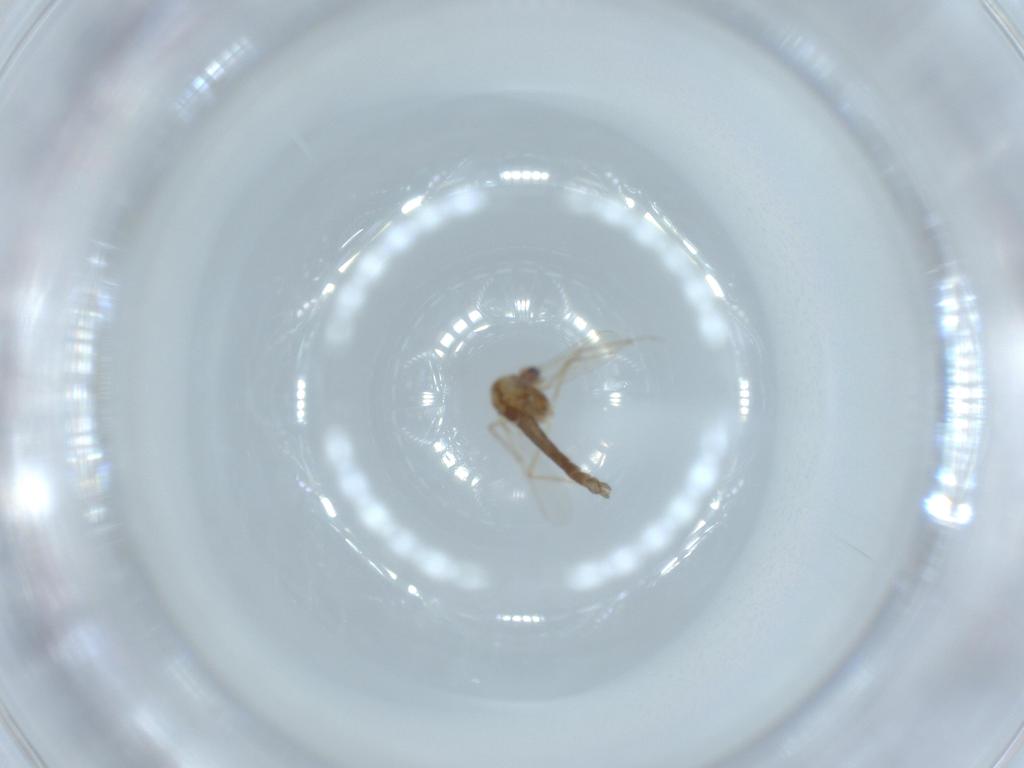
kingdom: Animalia
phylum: Arthropoda
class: Insecta
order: Diptera
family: Chironomidae
